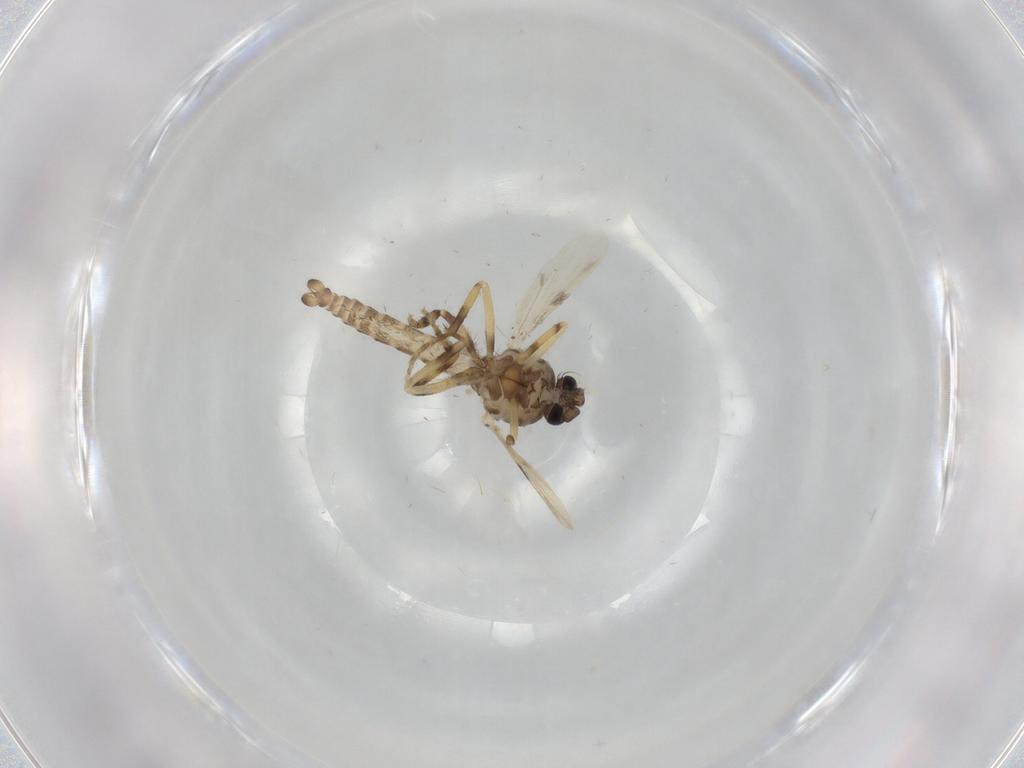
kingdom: Animalia
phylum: Arthropoda
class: Insecta
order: Diptera
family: Ceratopogonidae
